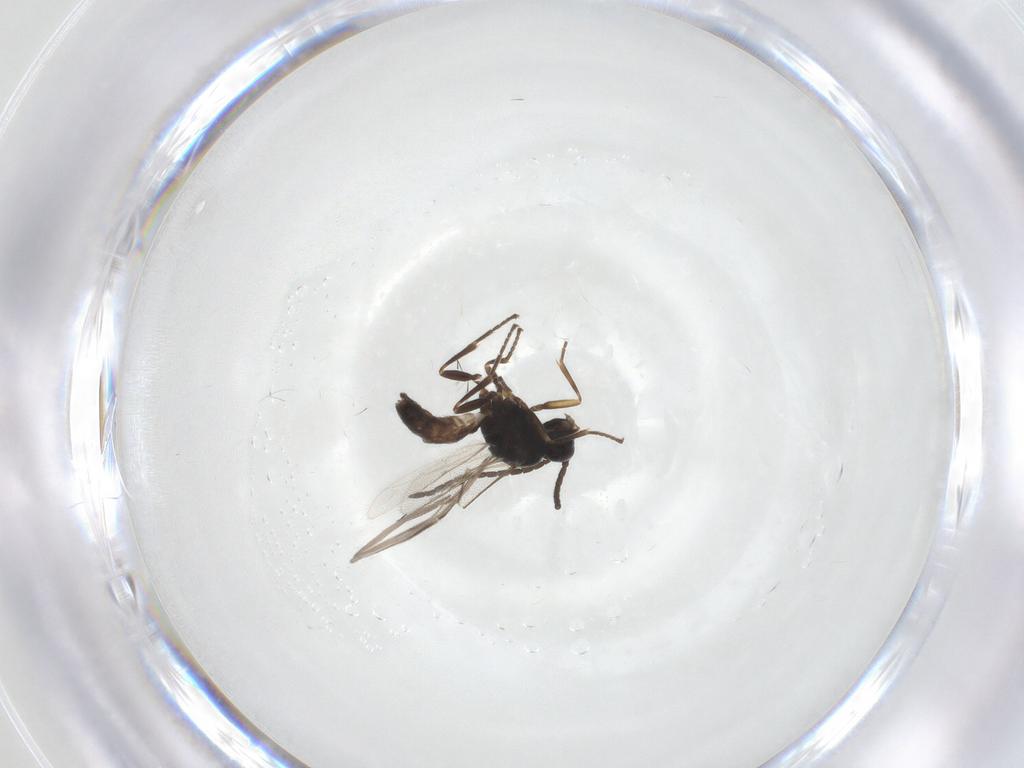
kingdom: Animalia
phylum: Arthropoda
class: Insecta
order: Hymenoptera
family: Braconidae
